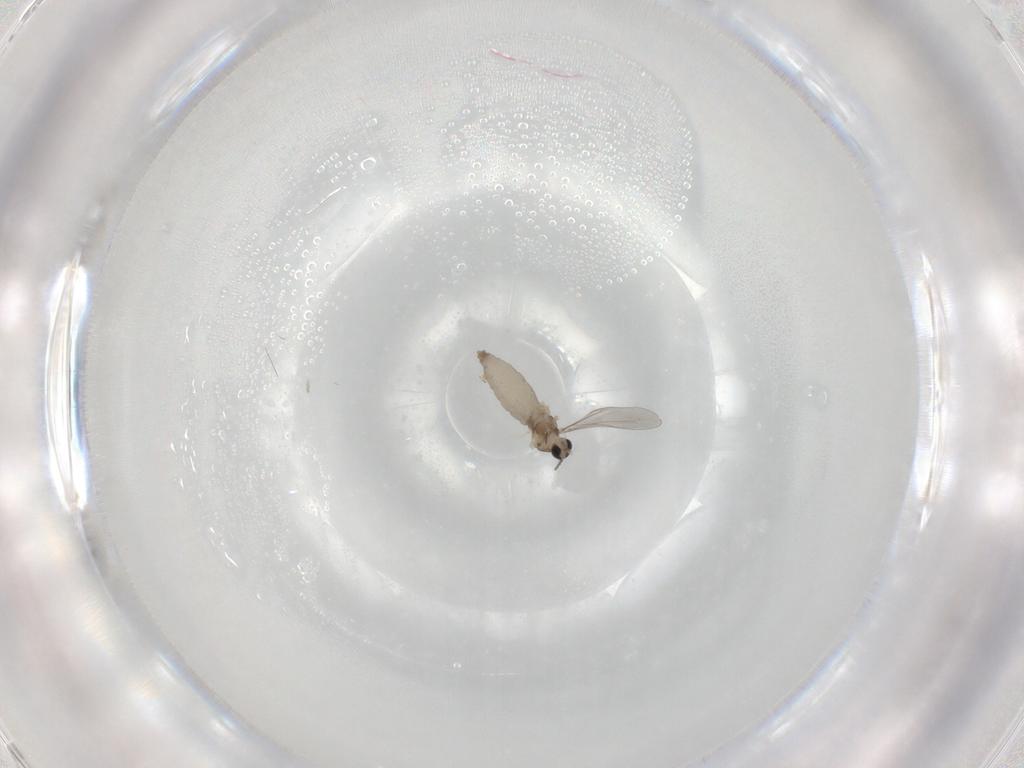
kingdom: Animalia
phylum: Arthropoda
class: Insecta
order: Diptera
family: Cecidomyiidae
